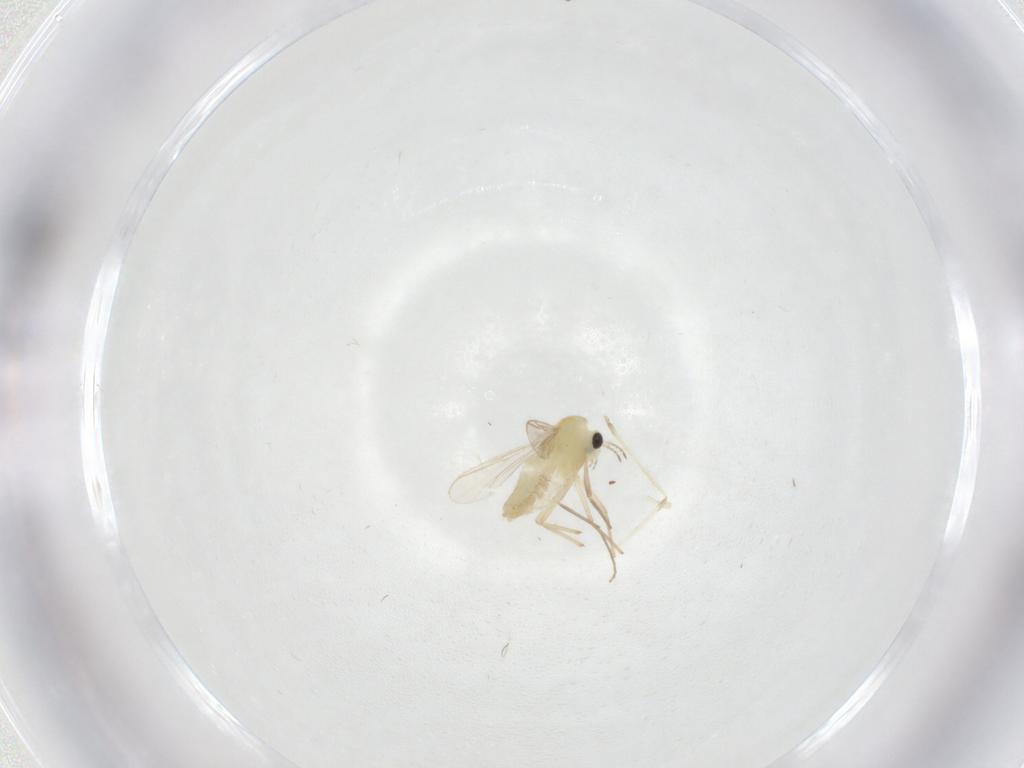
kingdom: Animalia
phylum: Arthropoda
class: Insecta
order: Diptera
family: Chironomidae
